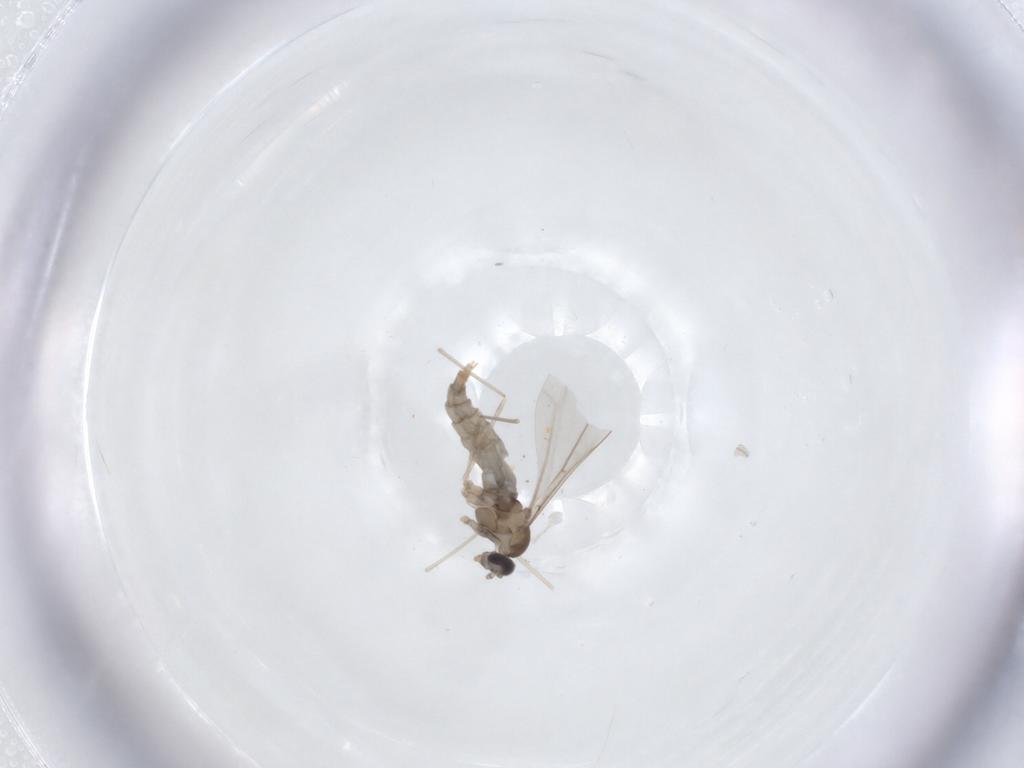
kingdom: Animalia
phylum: Arthropoda
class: Insecta
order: Diptera
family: Cecidomyiidae
